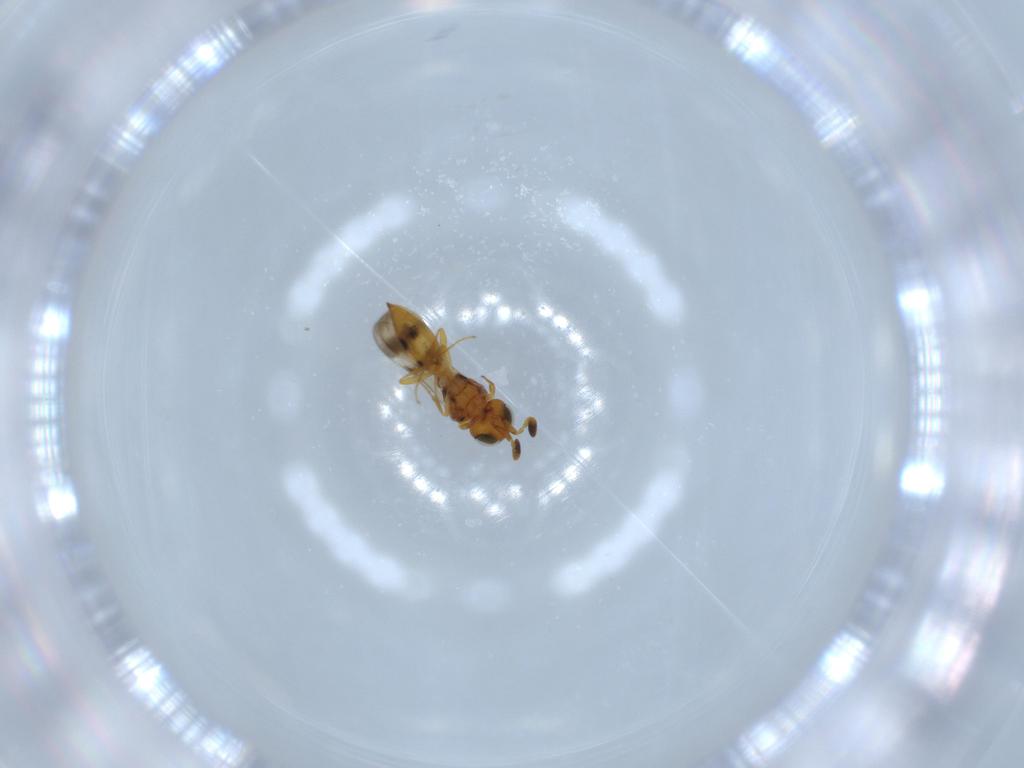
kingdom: Animalia
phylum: Arthropoda
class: Insecta
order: Hymenoptera
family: Scelionidae
